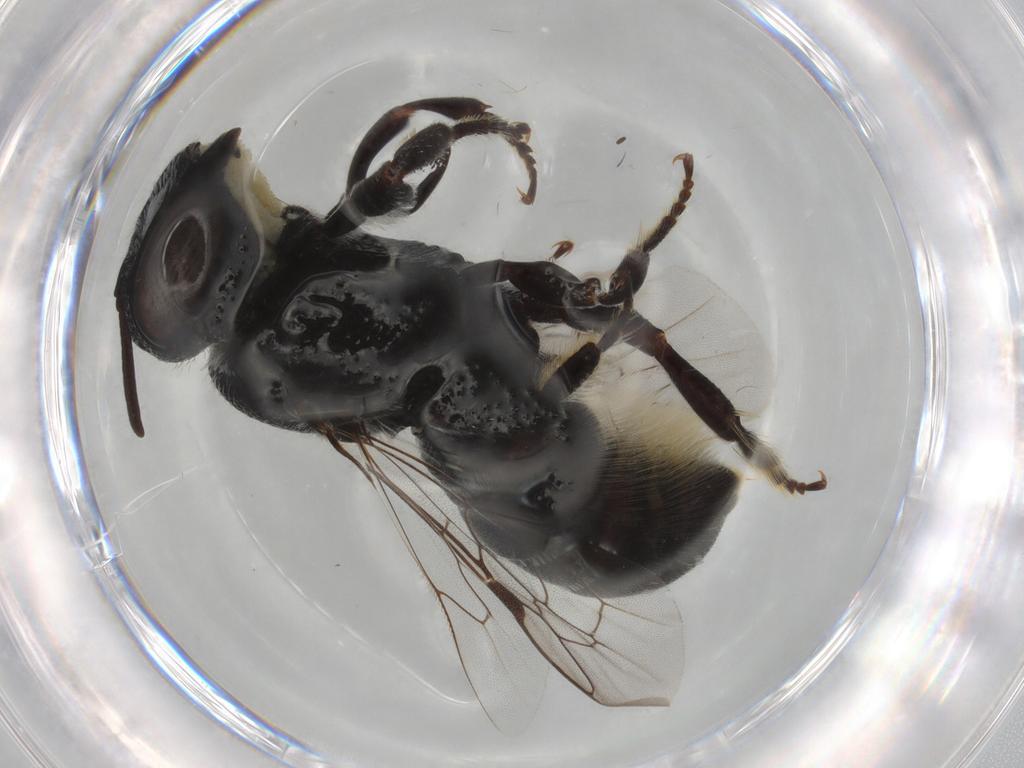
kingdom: Animalia
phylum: Arthropoda
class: Insecta
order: Hymenoptera
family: Megachilidae
